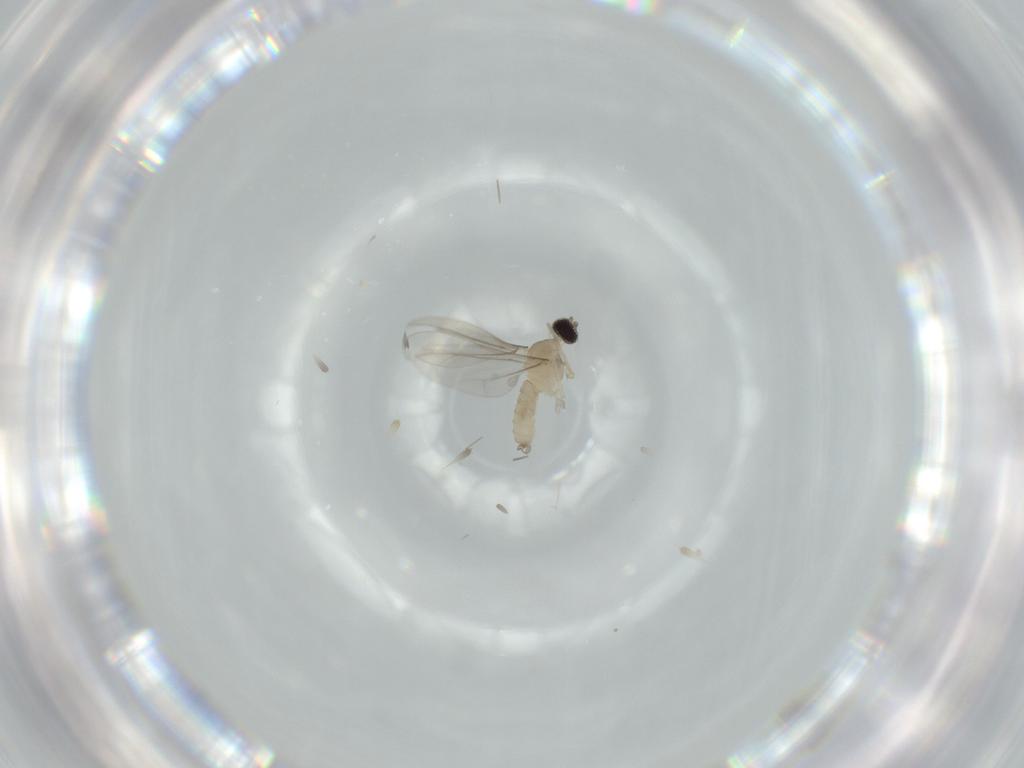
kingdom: Animalia
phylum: Arthropoda
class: Insecta
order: Diptera
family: Cecidomyiidae
